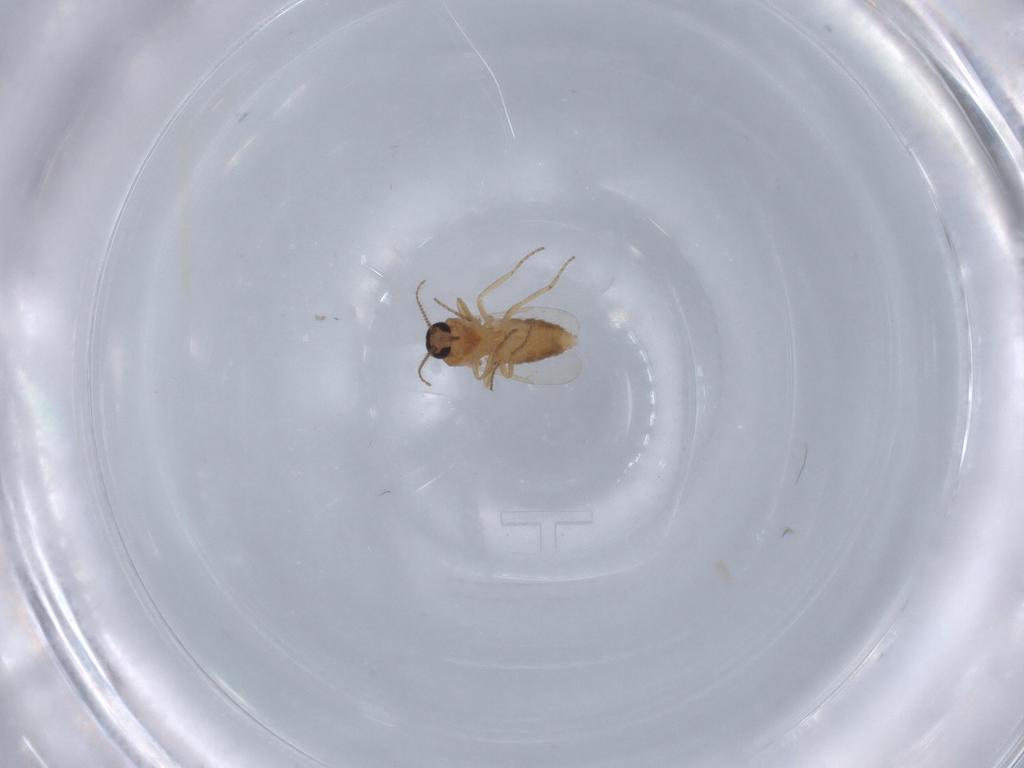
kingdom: Animalia
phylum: Arthropoda
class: Insecta
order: Diptera
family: Ceratopogonidae
